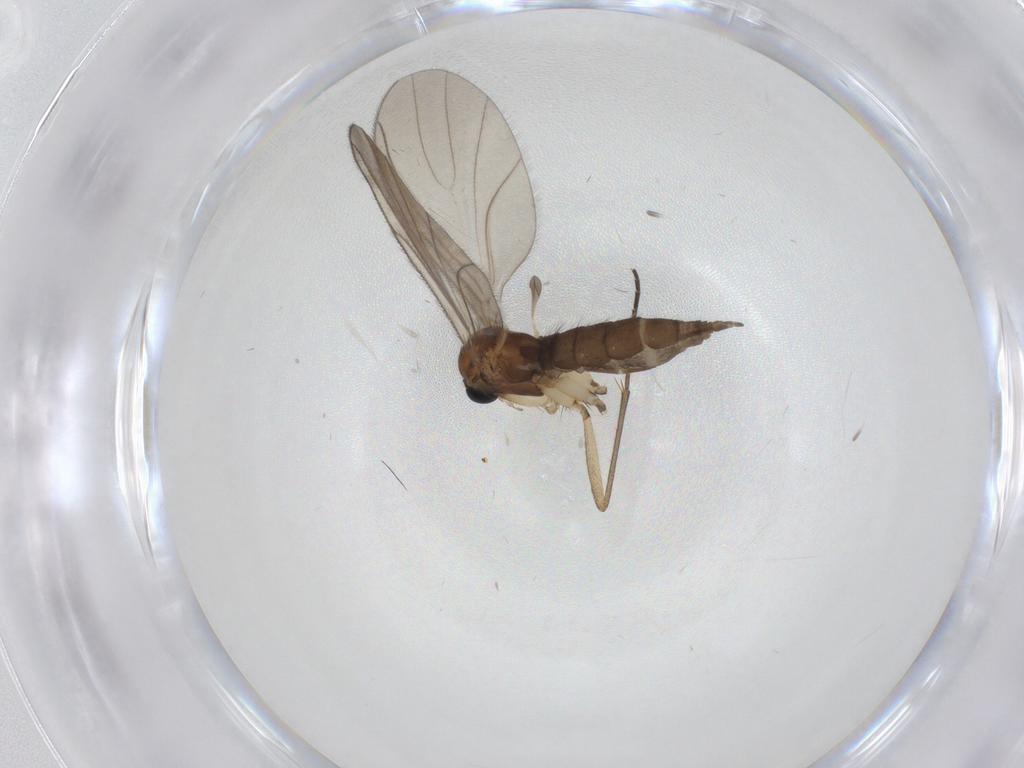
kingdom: Animalia
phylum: Arthropoda
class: Insecta
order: Diptera
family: Sciaridae
